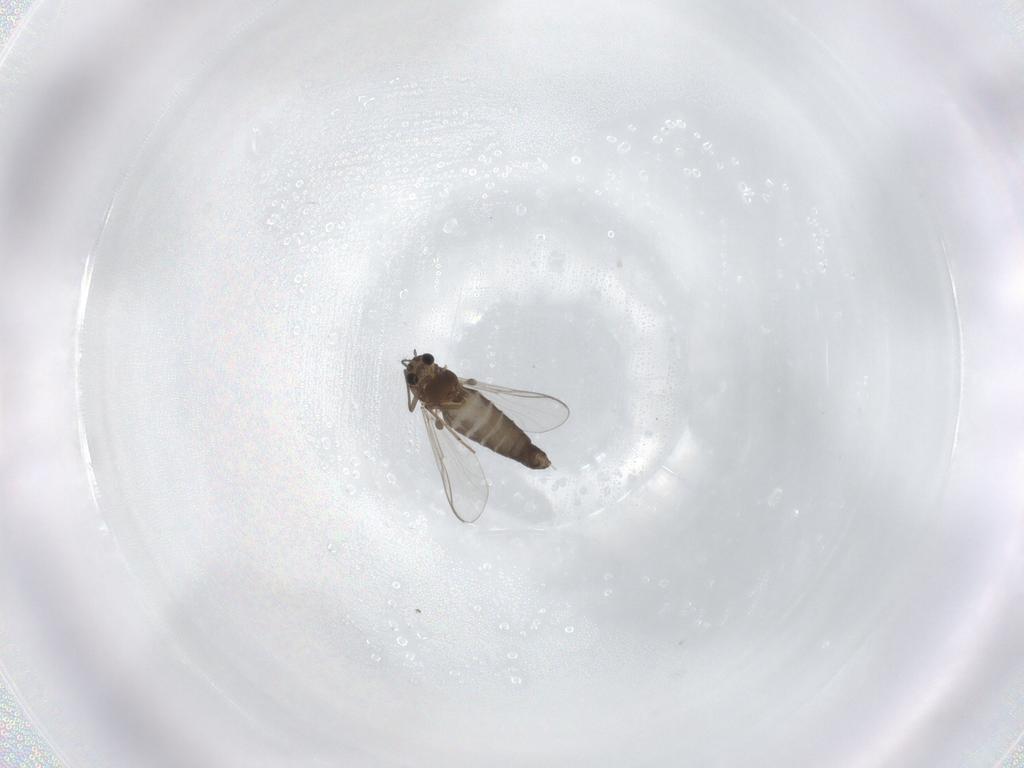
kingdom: Animalia
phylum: Arthropoda
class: Insecta
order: Diptera
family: Chironomidae
